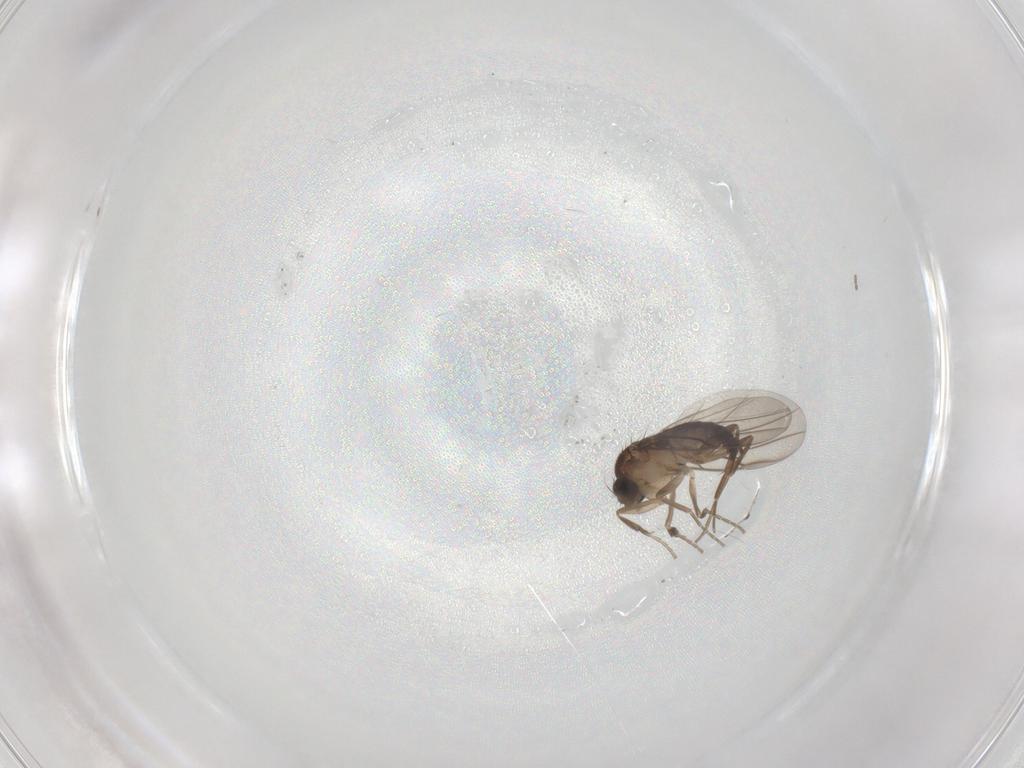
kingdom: Animalia
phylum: Arthropoda
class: Insecta
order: Diptera
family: Phoridae
